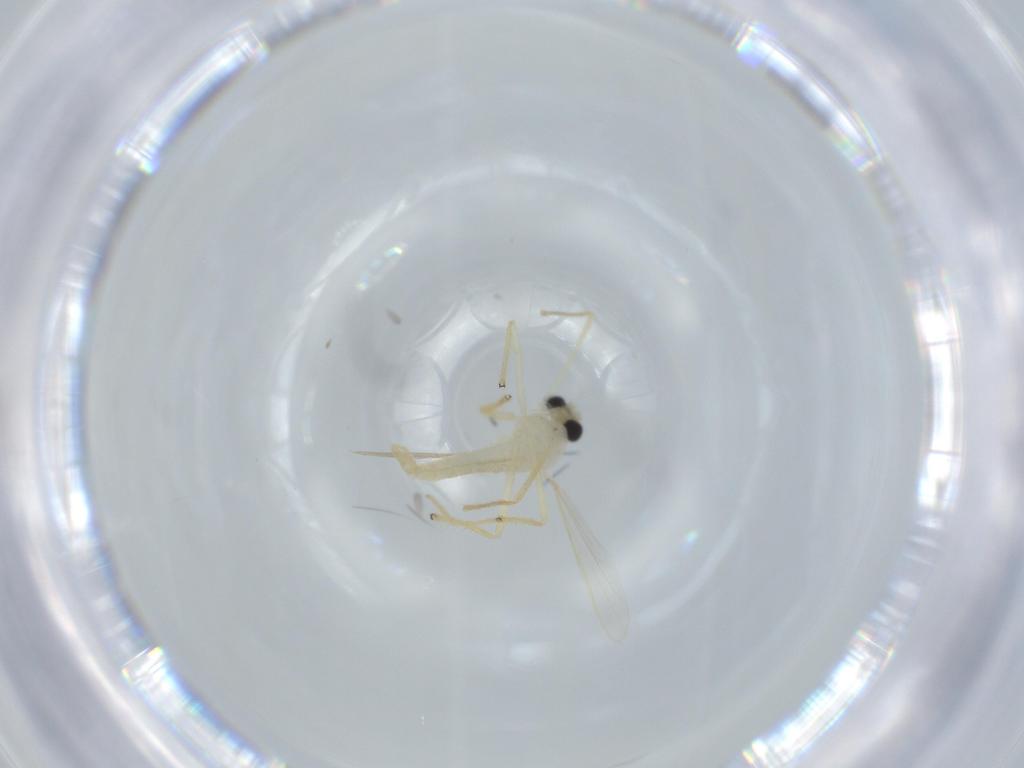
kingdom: Animalia
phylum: Arthropoda
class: Insecta
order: Diptera
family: Chironomidae
